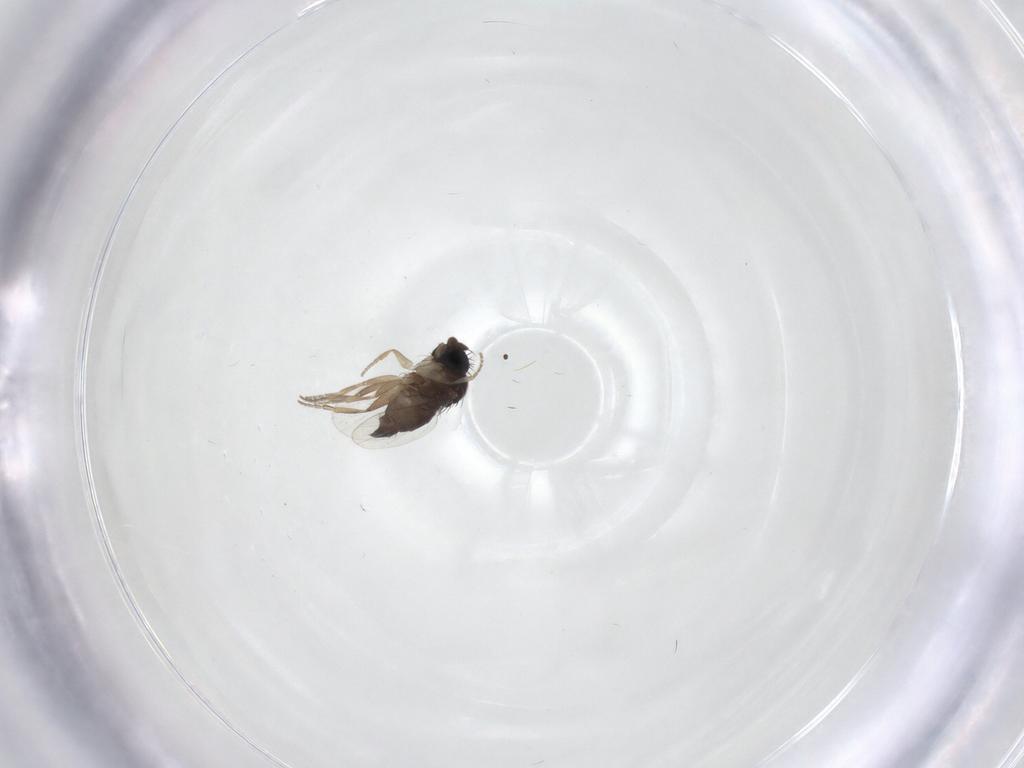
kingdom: Animalia
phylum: Arthropoda
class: Insecta
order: Diptera
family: Phoridae
